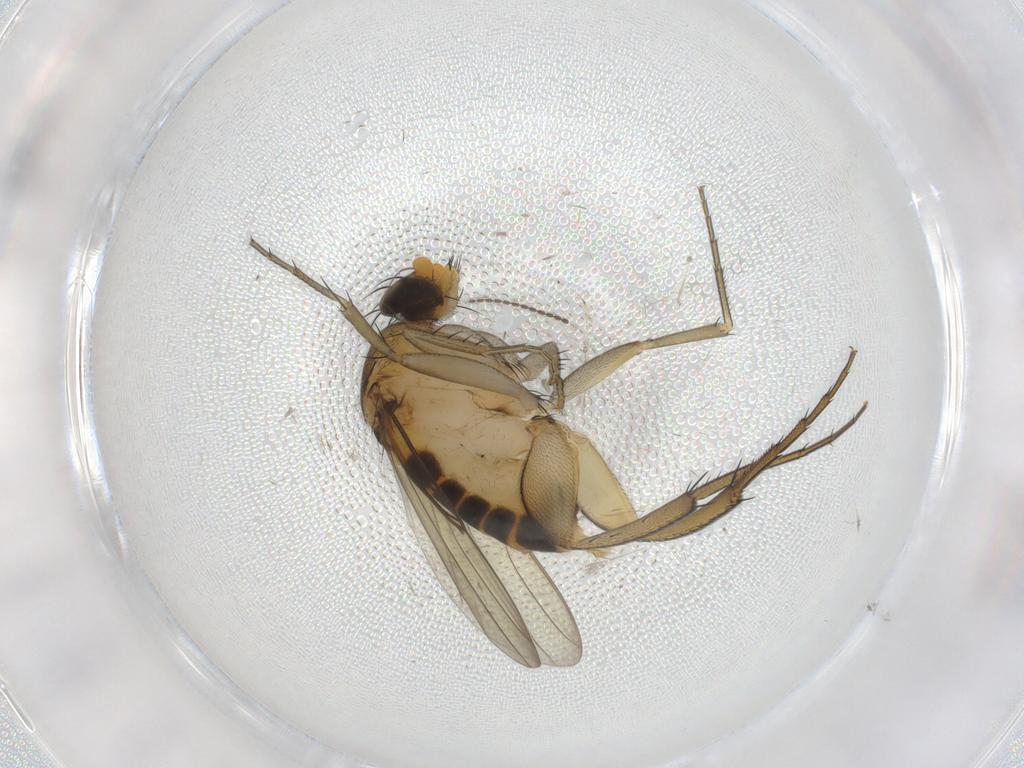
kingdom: Animalia
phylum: Arthropoda
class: Insecta
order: Diptera
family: Phoridae
